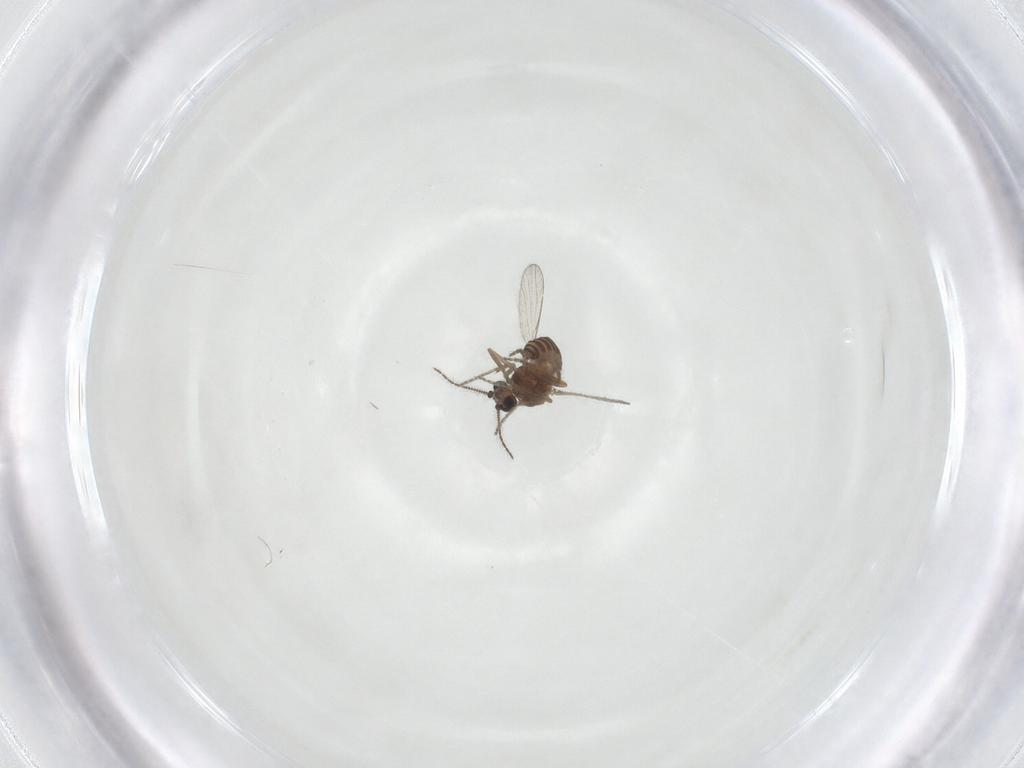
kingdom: Animalia
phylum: Arthropoda
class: Insecta
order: Diptera
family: Ceratopogonidae
